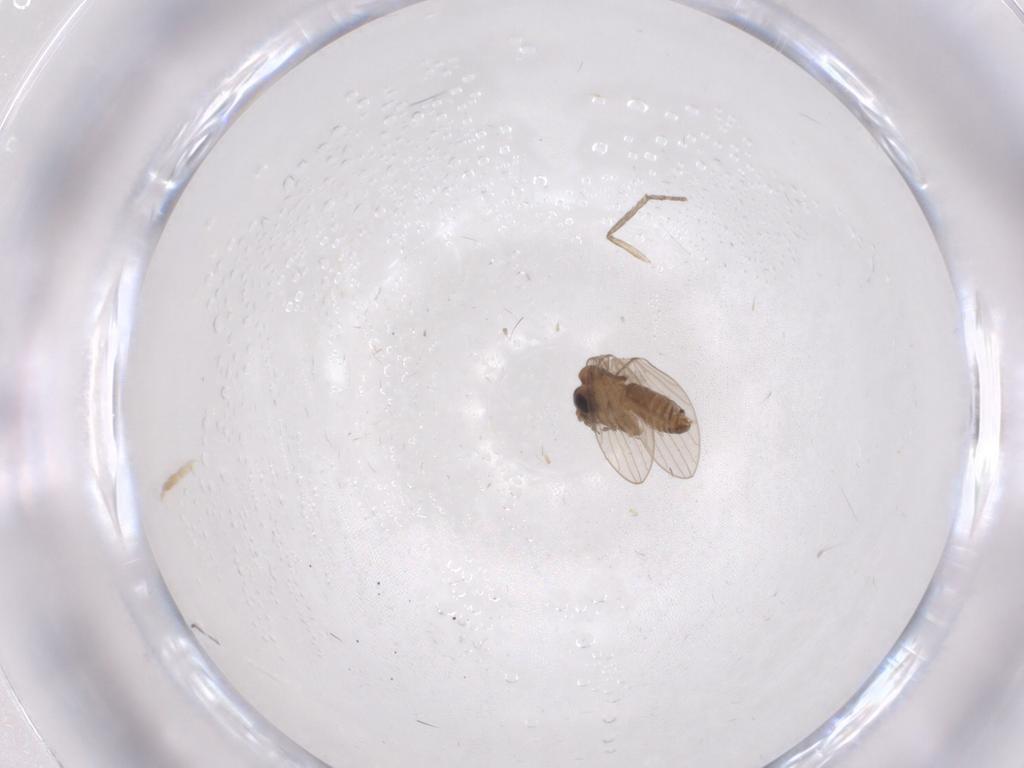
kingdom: Animalia
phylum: Arthropoda
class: Insecta
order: Diptera
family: Psychodidae
